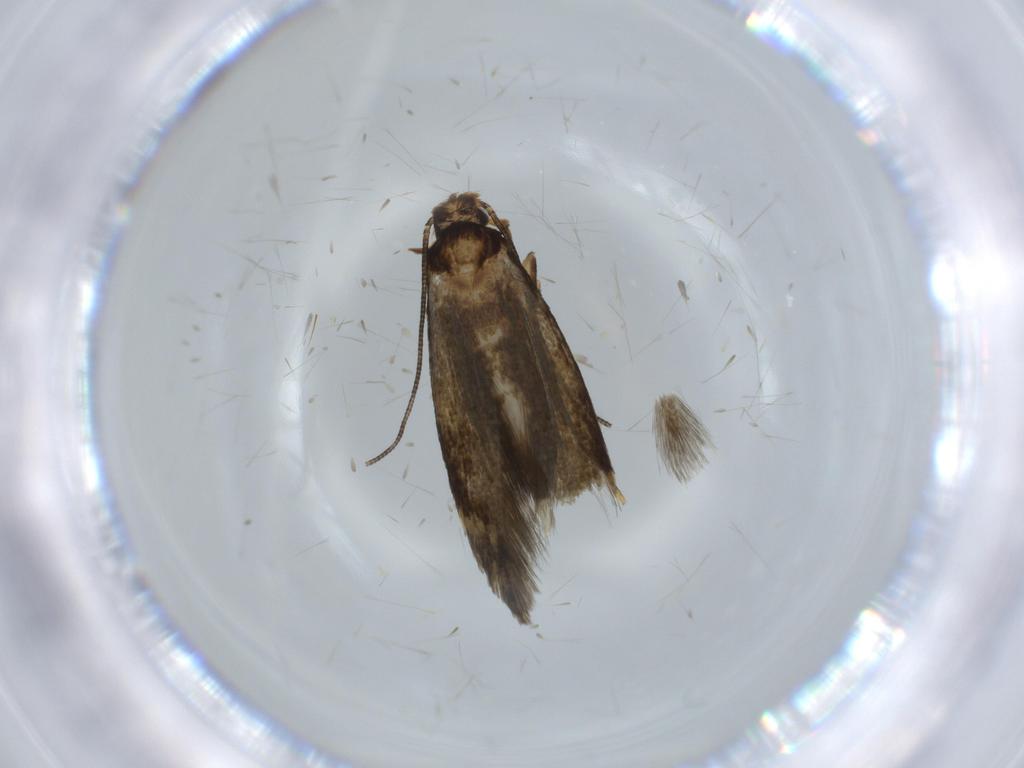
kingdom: Animalia
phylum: Arthropoda
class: Insecta
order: Lepidoptera
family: Tineidae
